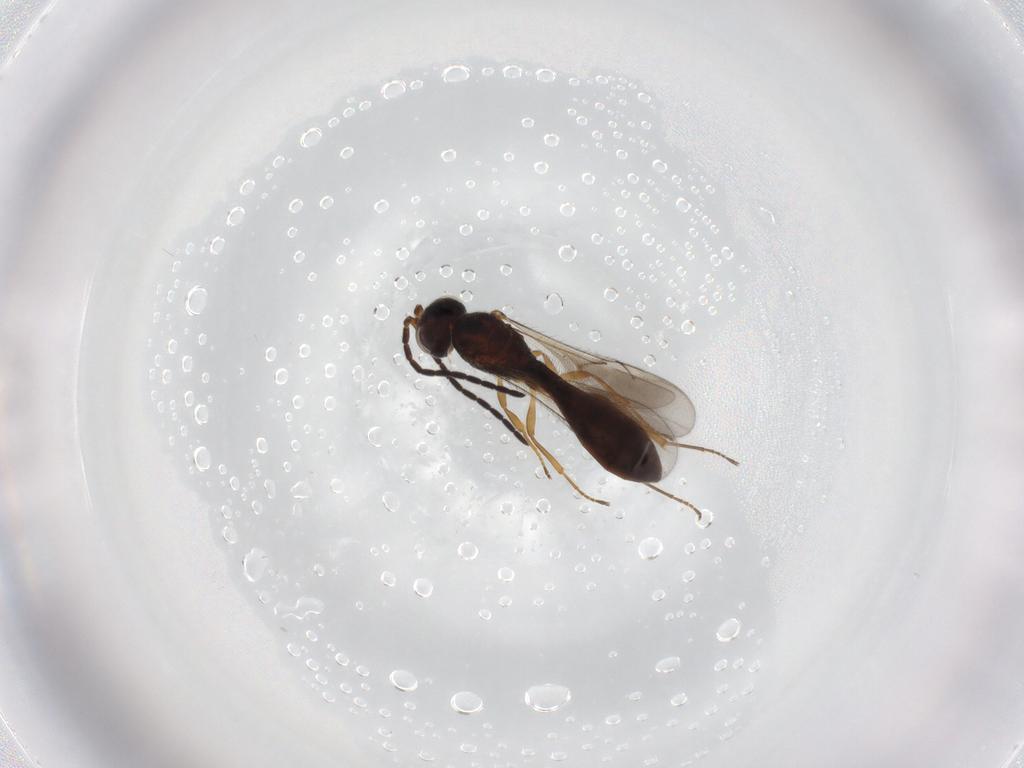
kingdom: Animalia
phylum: Arthropoda
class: Insecta
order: Hymenoptera
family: Scelionidae
